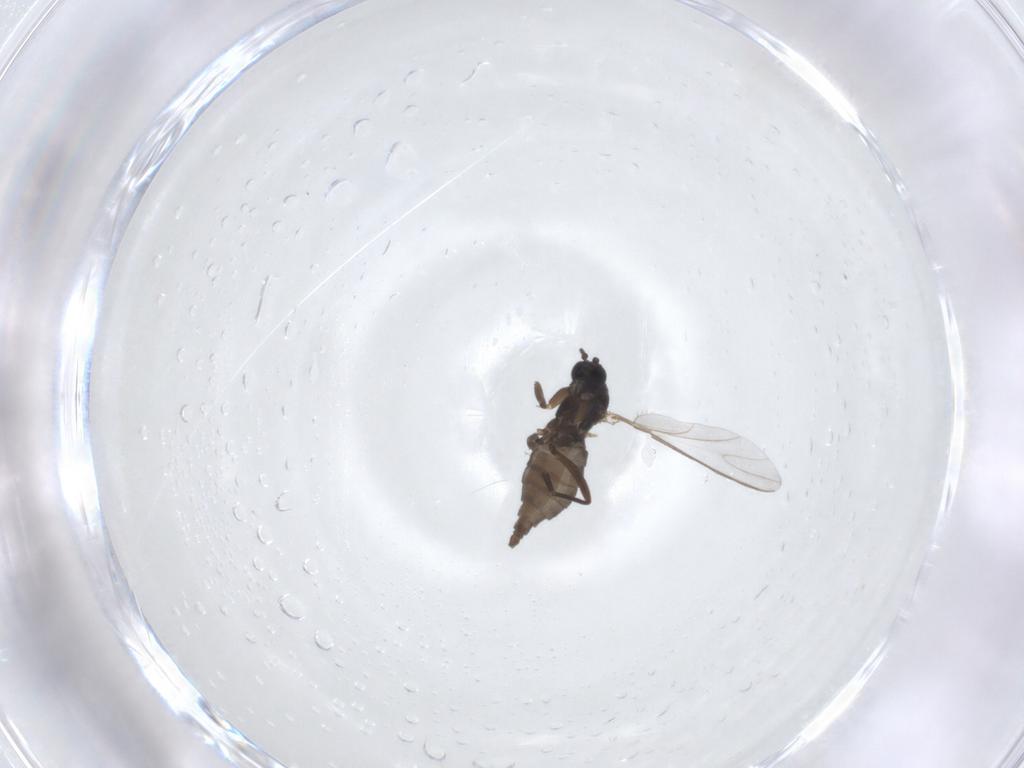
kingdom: Animalia
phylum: Arthropoda
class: Insecta
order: Diptera
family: Sciaridae
